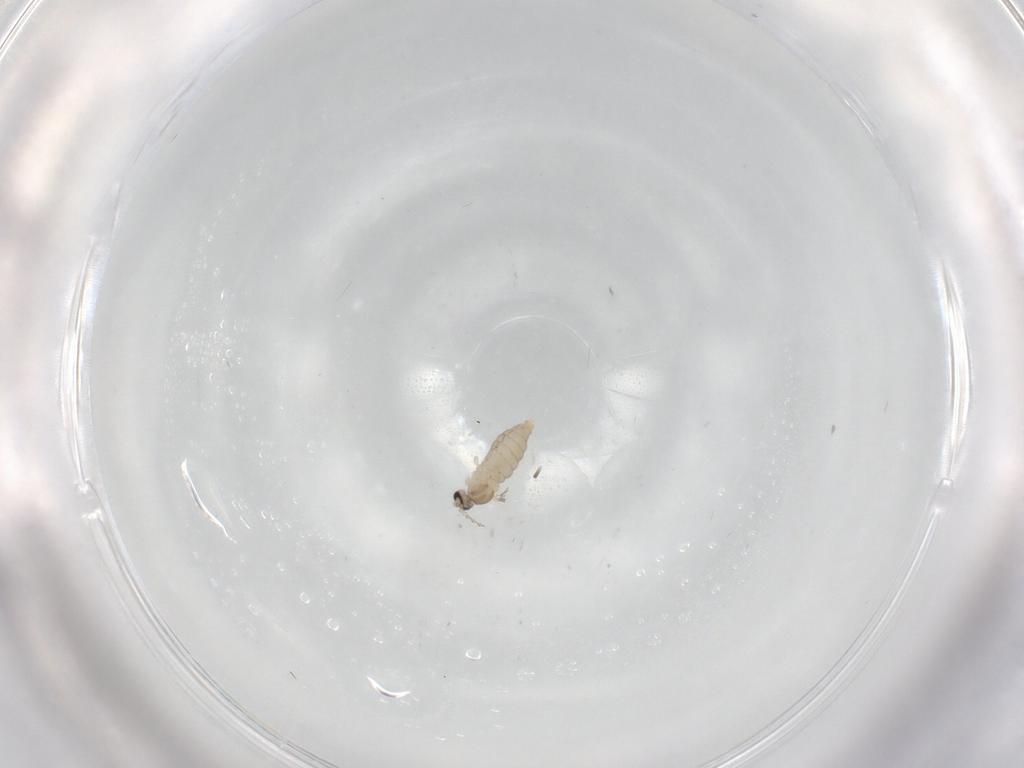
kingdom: Animalia
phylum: Arthropoda
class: Insecta
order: Diptera
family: Cecidomyiidae
